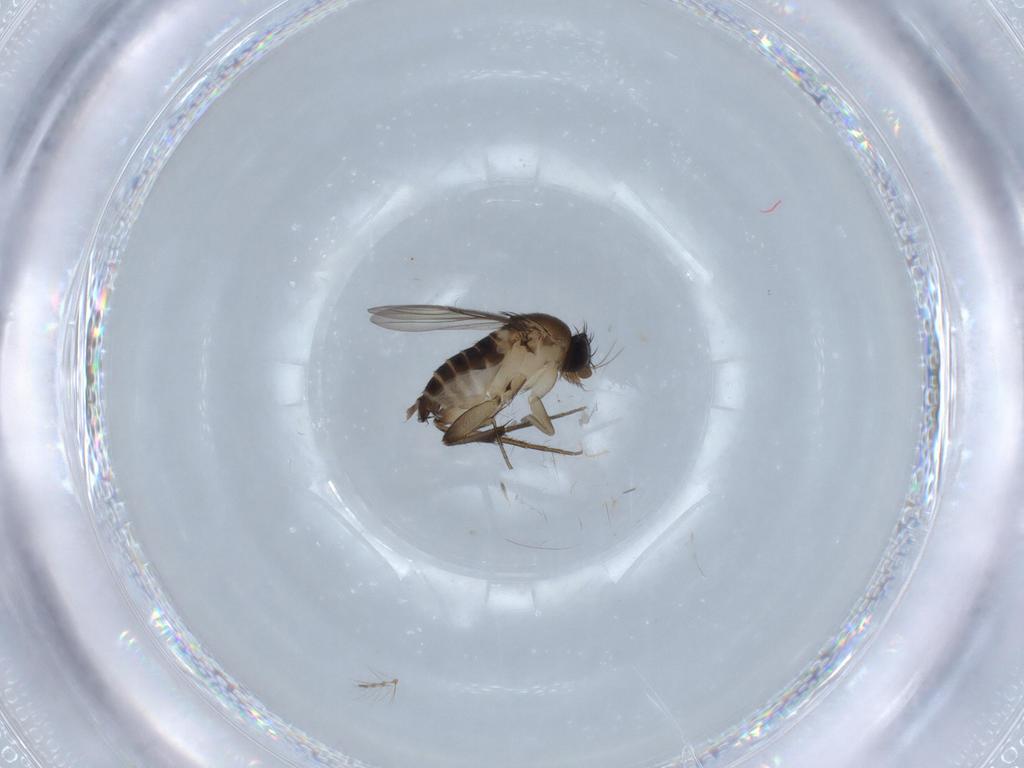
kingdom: Animalia
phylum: Arthropoda
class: Insecta
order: Diptera
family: Phoridae
